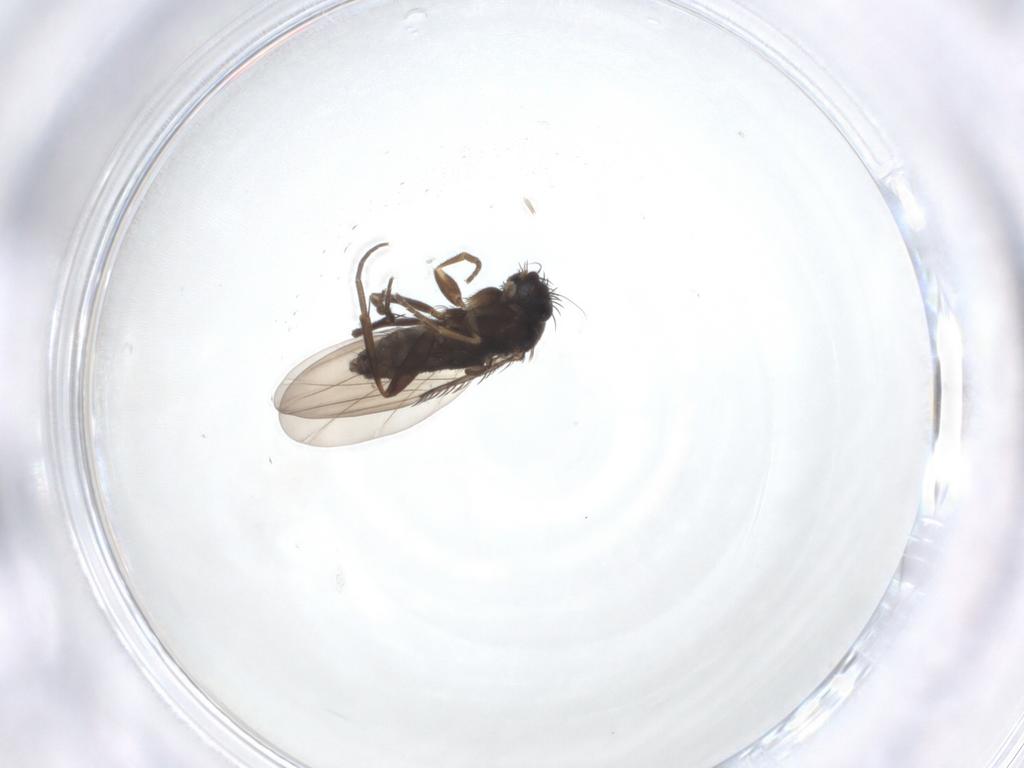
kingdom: Animalia
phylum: Arthropoda
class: Insecta
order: Diptera
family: Phoridae
